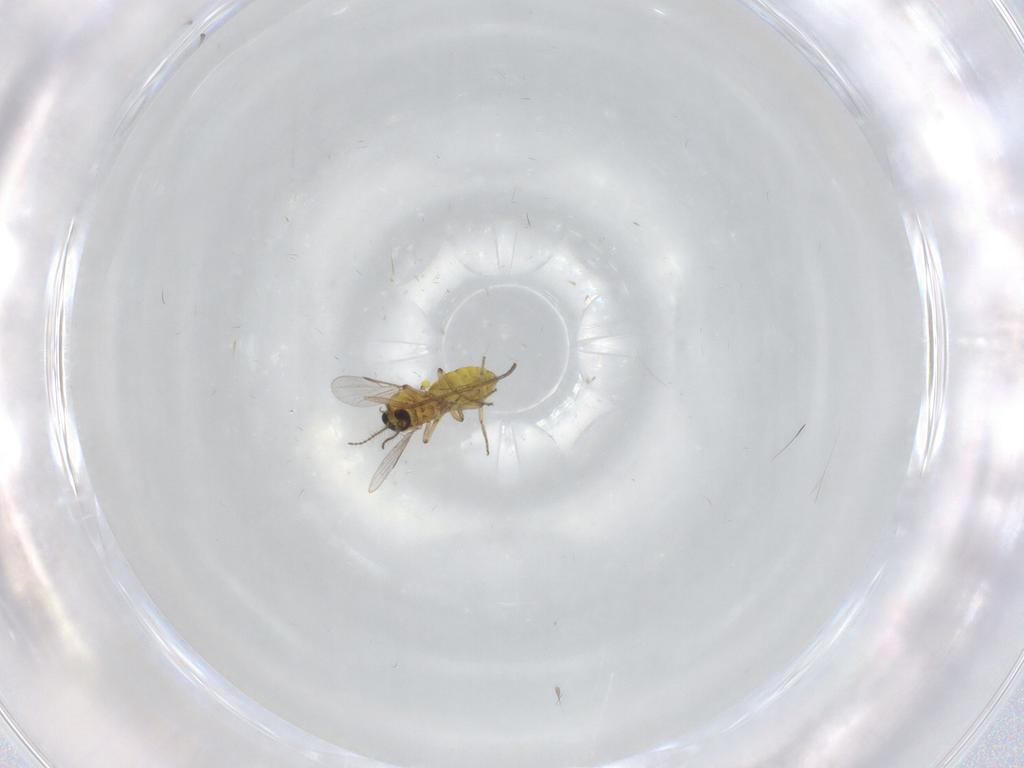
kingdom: Animalia
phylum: Arthropoda
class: Insecta
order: Diptera
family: Sciaridae
